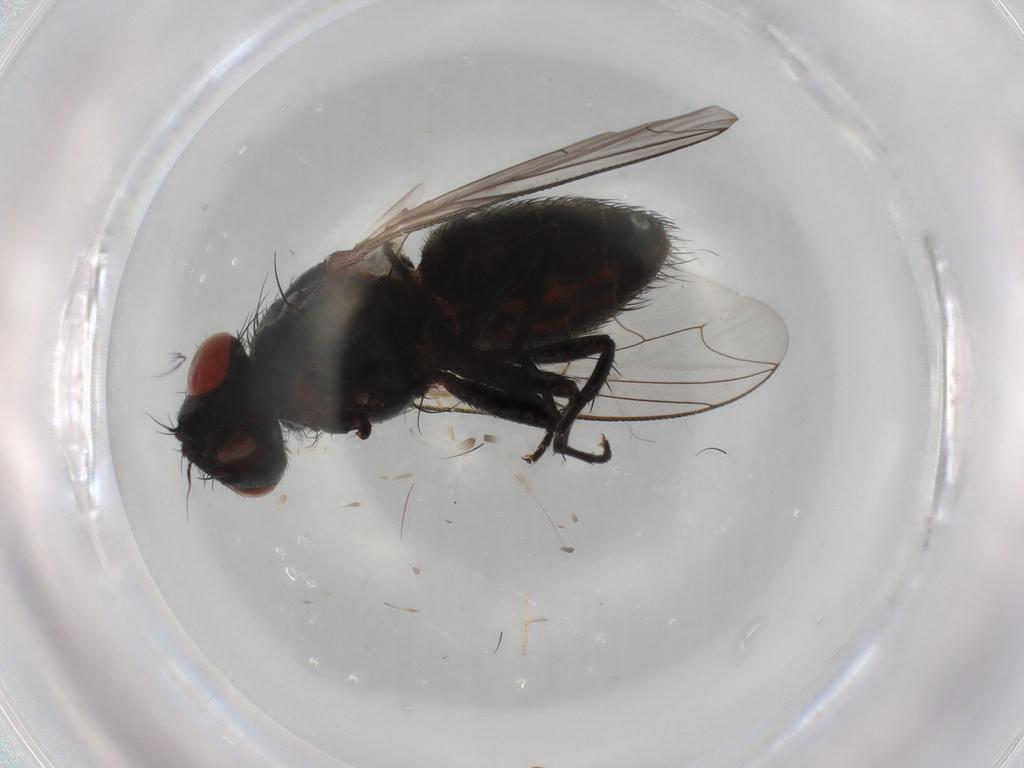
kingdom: Animalia
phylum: Arthropoda
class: Insecta
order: Diptera
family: Sarcophagidae
